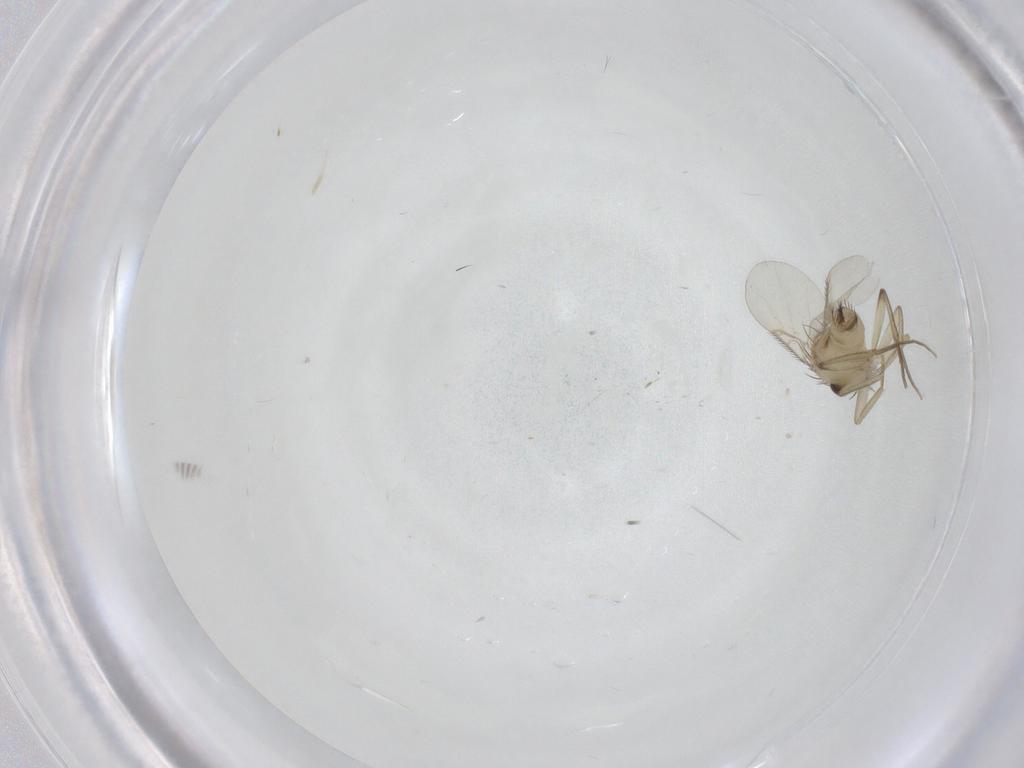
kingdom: Animalia
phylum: Arthropoda
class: Insecta
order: Diptera
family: Phoridae
